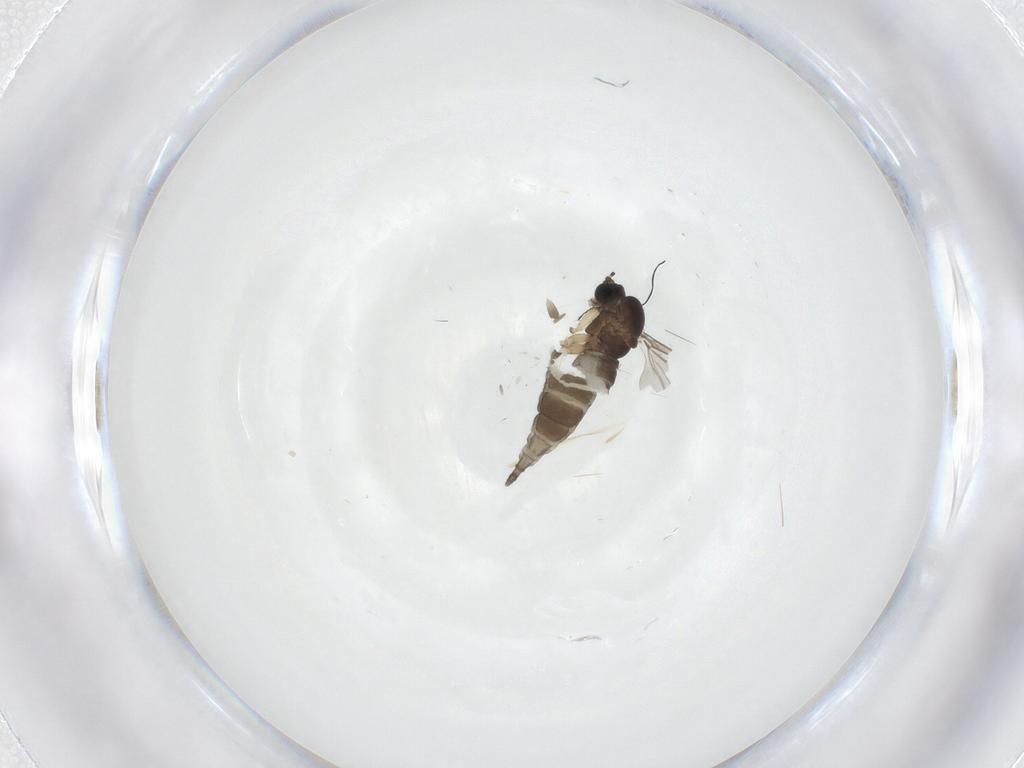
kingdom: Animalia
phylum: Arthropoda
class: Insecta
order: Diptera
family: Sciaridae
